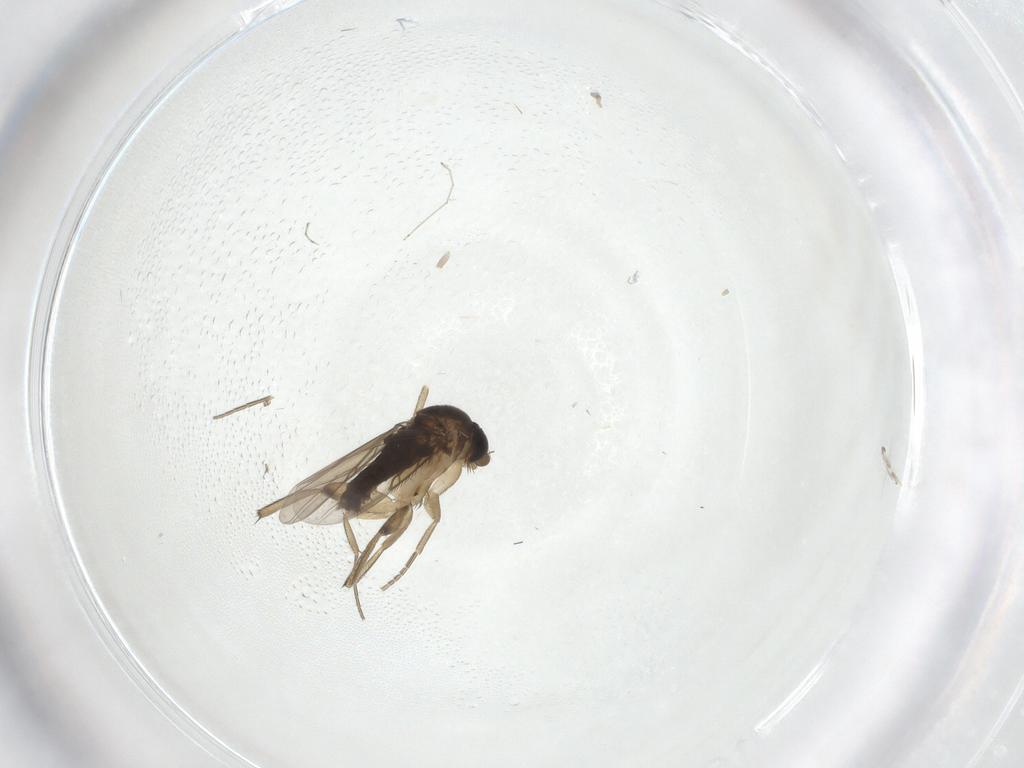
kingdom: Animalia
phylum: Arthropoda
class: Insecta
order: Diptera
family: Phoridae
